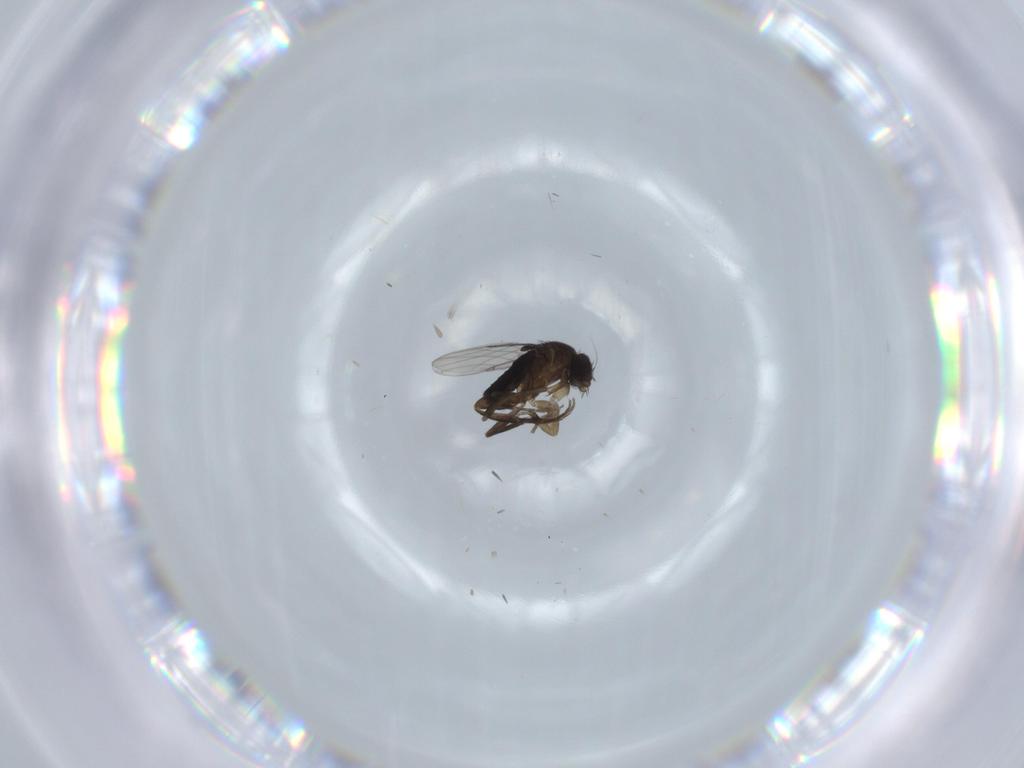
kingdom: Animalia
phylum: Arthropoda
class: Insecta
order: Diptera
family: Phoridae
